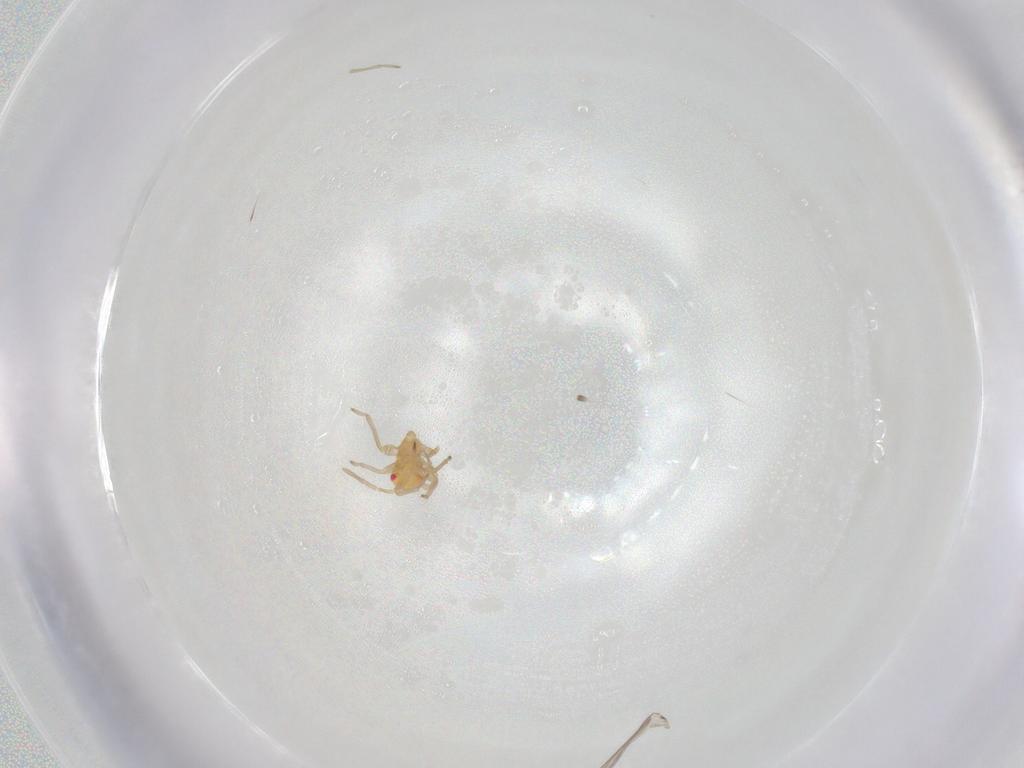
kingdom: Animalia
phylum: Arthropoda
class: Insecta
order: Hemiptera
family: Miridae
